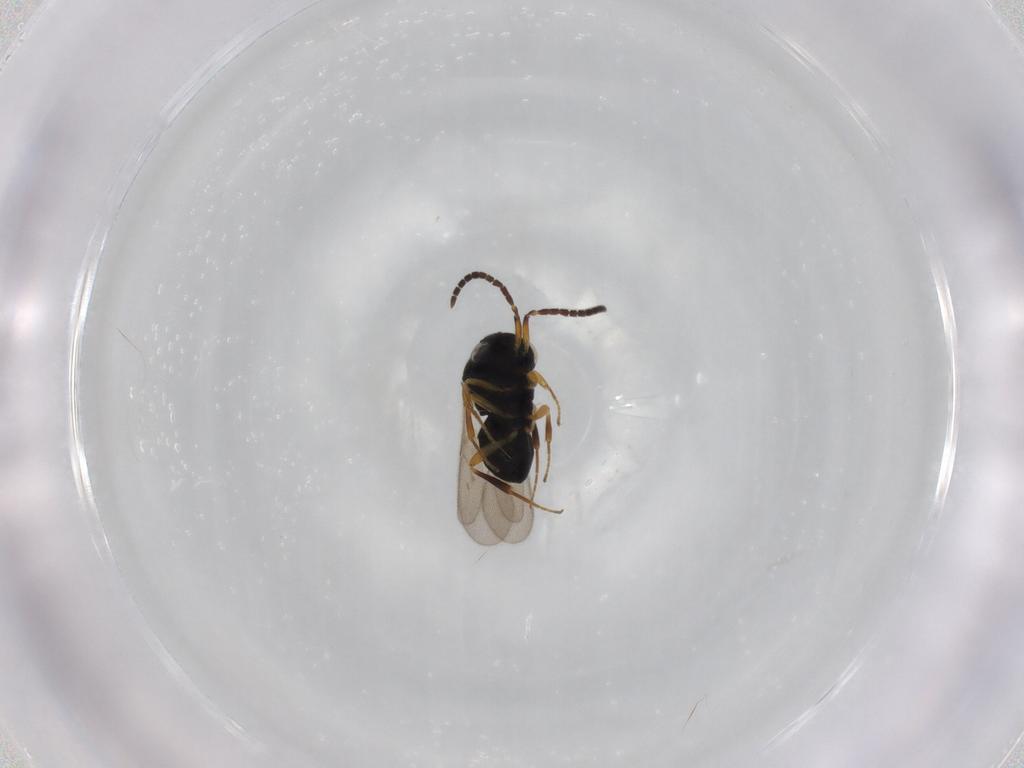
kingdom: Animalia
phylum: Arthropoda
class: Insecta
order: Hymenoptera
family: Scelionidae
